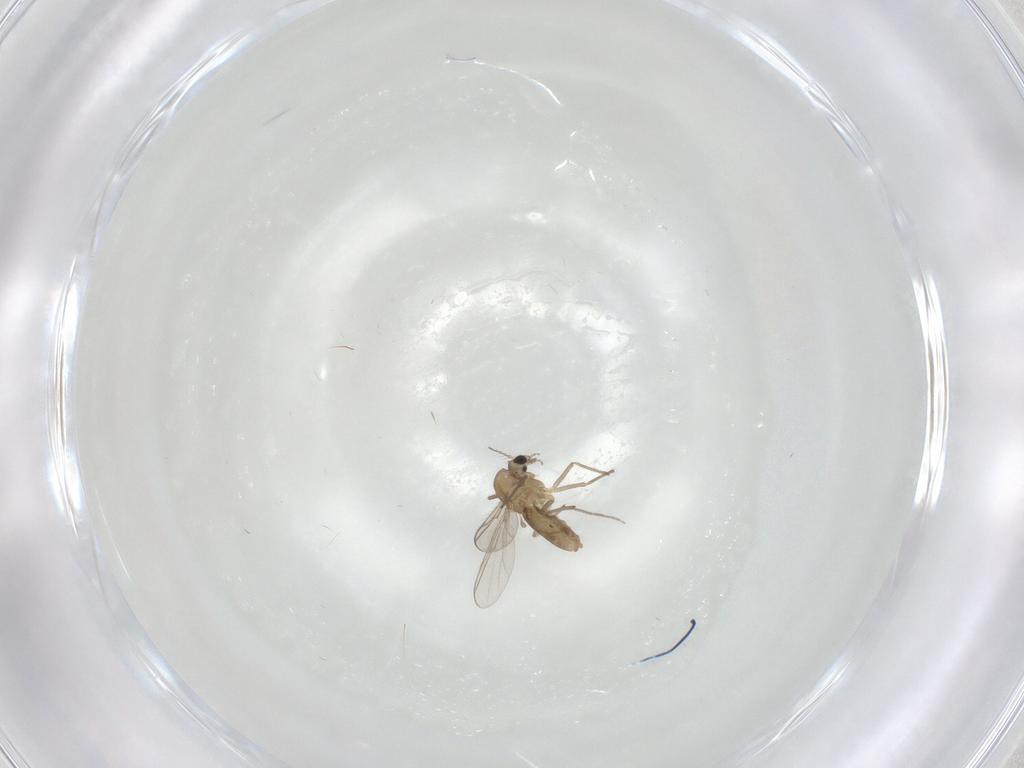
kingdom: Animalia
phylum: Arthropoda
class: Insecta
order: Diptera
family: Chironomidae
